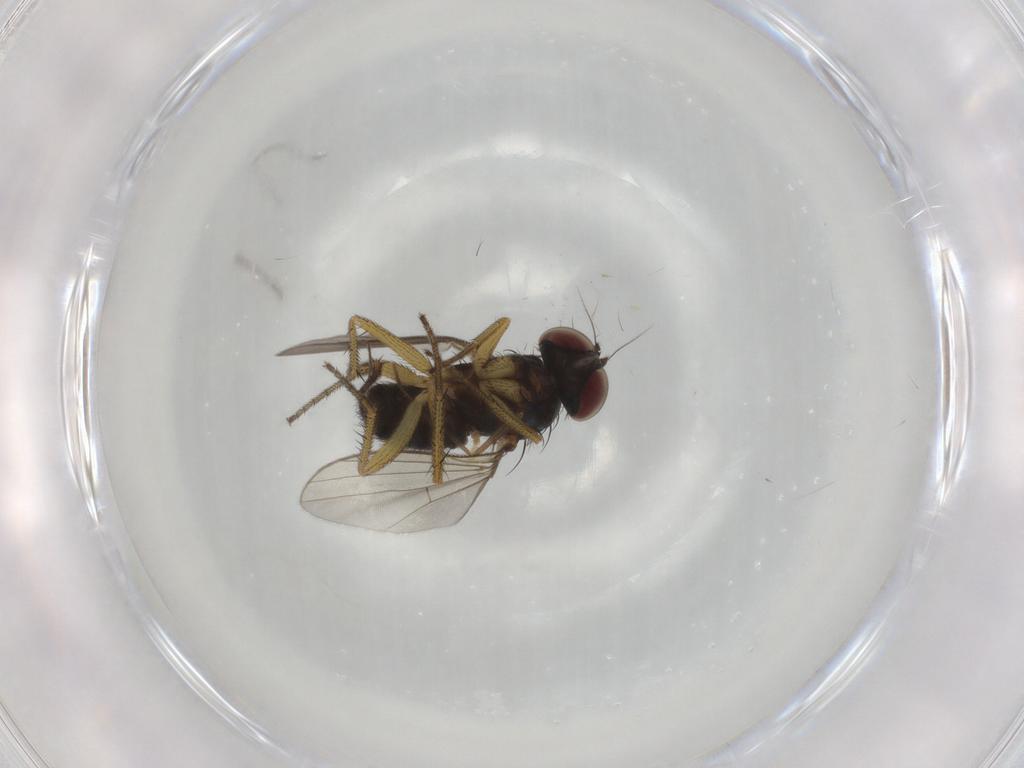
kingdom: Animalia
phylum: Arthropoda
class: Insecta
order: Diptera
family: Dolichopodidae
